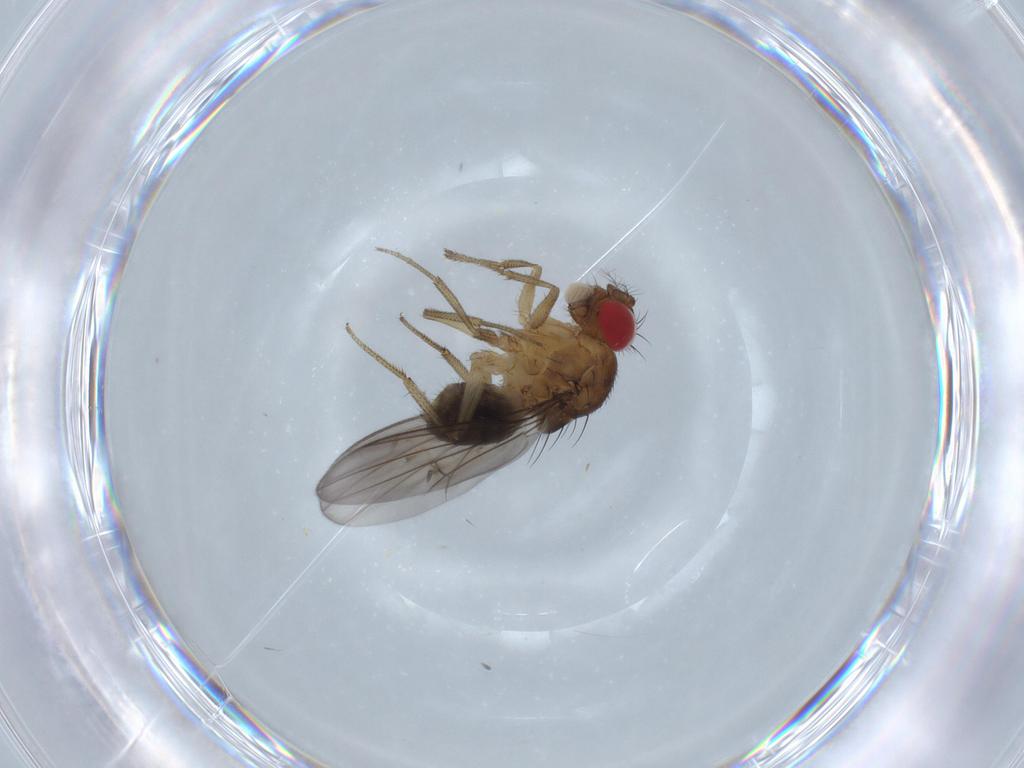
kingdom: Animalia
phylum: Arthropoda
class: Insecta
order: Diptera
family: Drosophilidae
